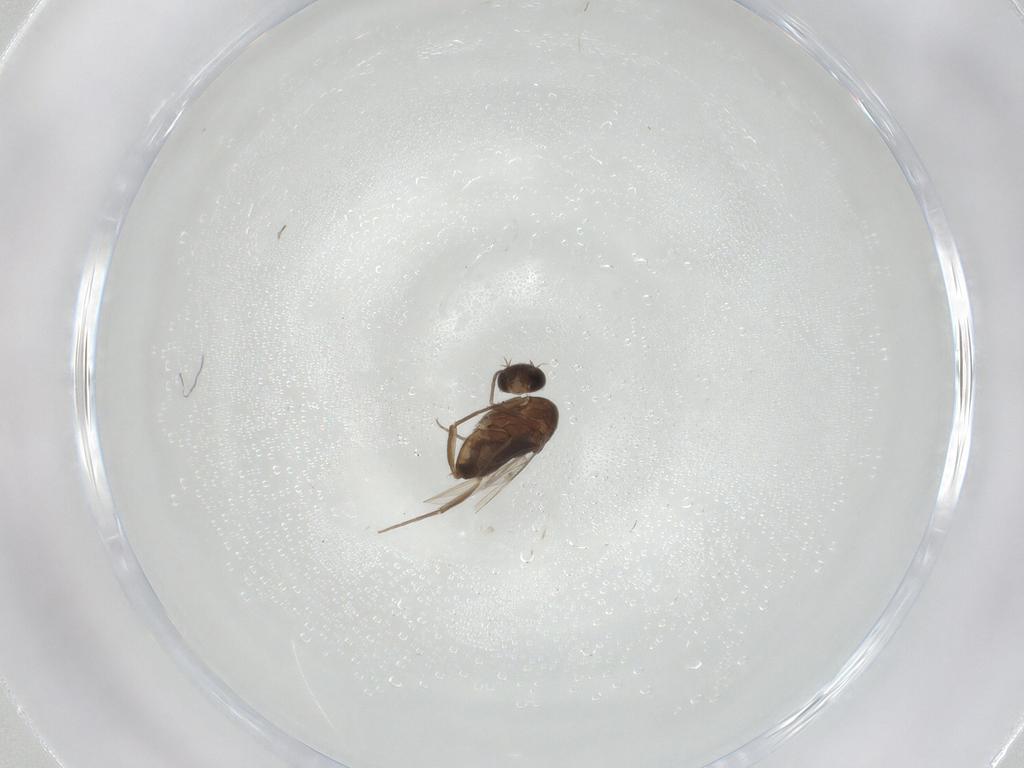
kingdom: Animalia
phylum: Arthropoda
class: Insecta
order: Diptera
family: Phoridae
